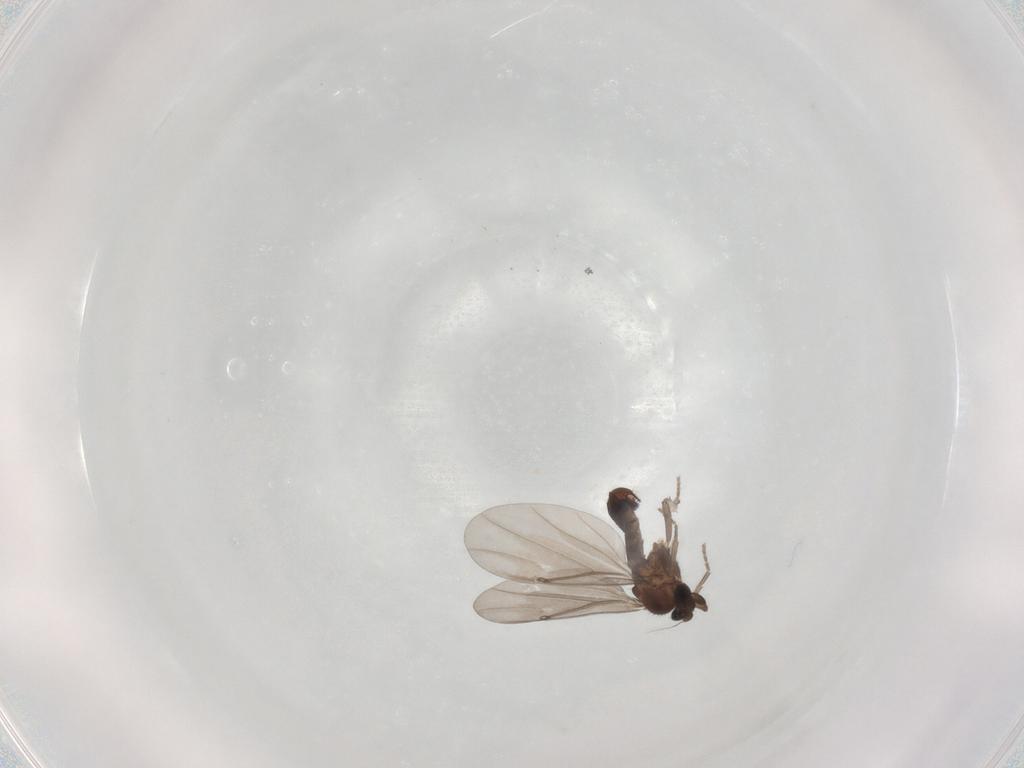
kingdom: Animalia
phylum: Arthropoda
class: Insecta
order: Diptera
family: Phoridae
